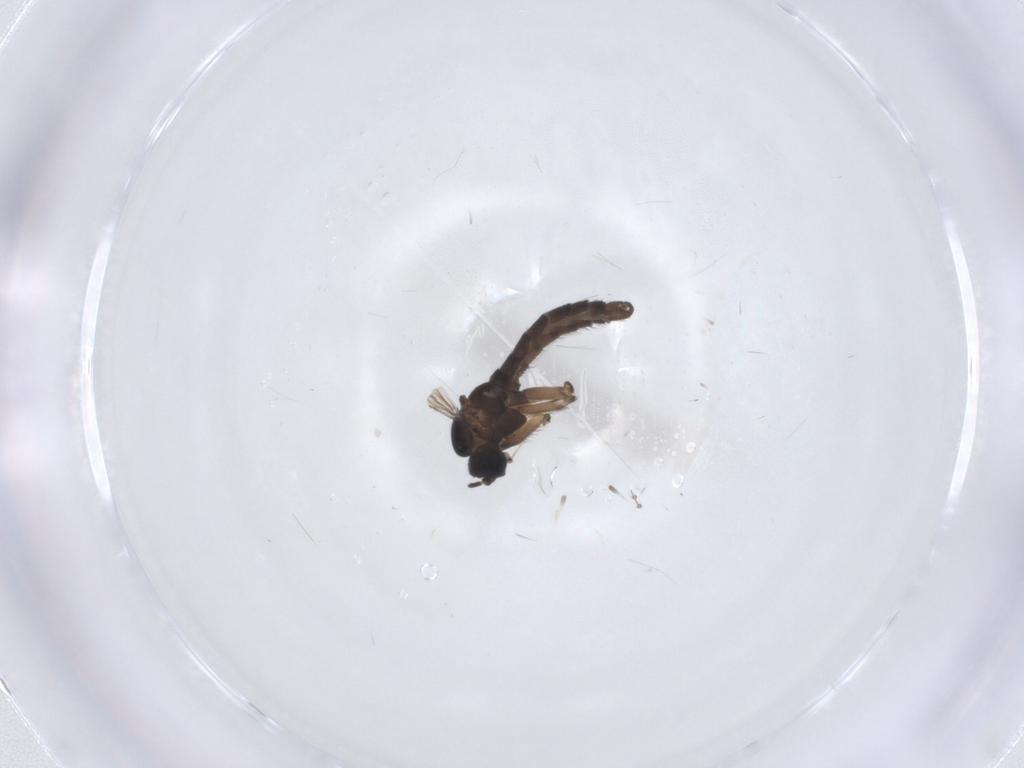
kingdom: Animalia
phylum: Arthropoda
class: Insecta
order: Diptera
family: Sciaridae
